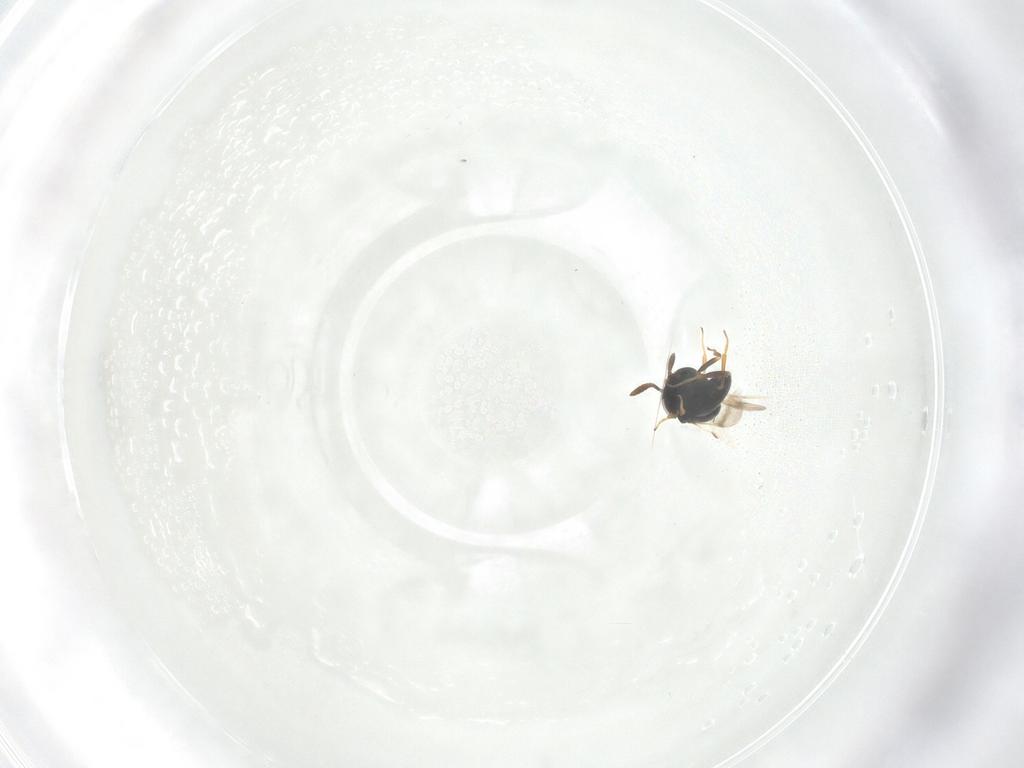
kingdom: Animalia
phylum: Arthropoda
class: Insecta
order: Hymenoptera
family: Scelionidae
